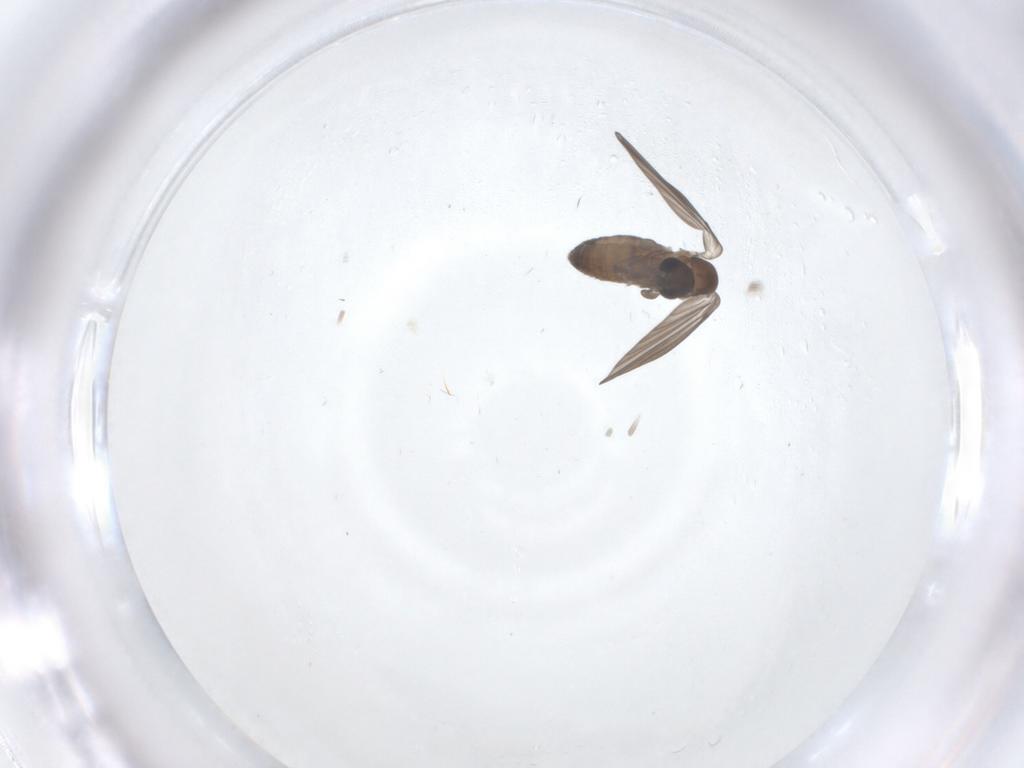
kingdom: Animalia
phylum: Arthropoda
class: Insecta
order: Diptera
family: Psychodidae
